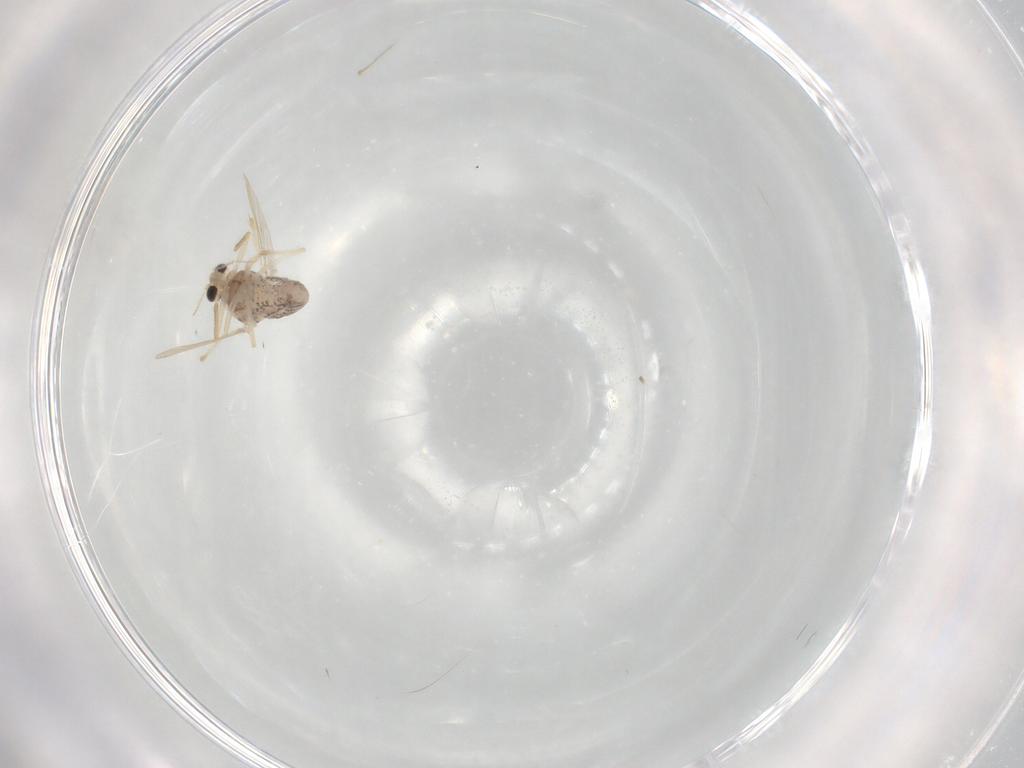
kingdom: Animalia
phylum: Arthropoda
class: Insecta
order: Diptera
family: Chironomidae
